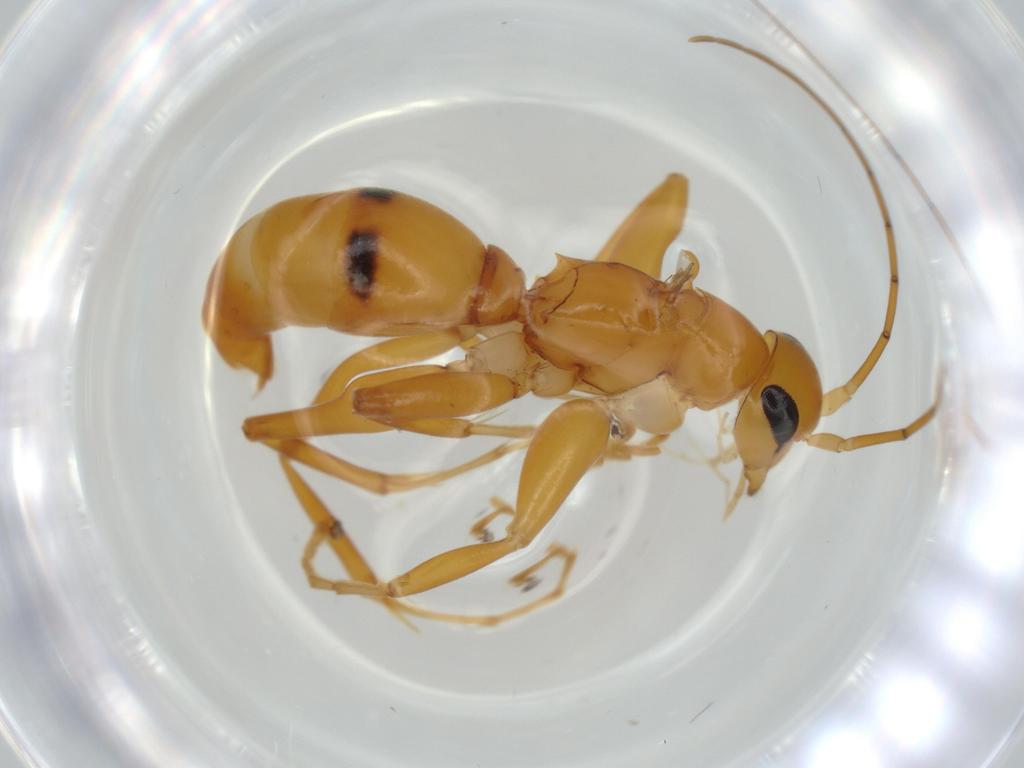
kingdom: Animalia
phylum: Arthropoda
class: Insecta
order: Hymenoptera
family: Rhopalosomatidae
